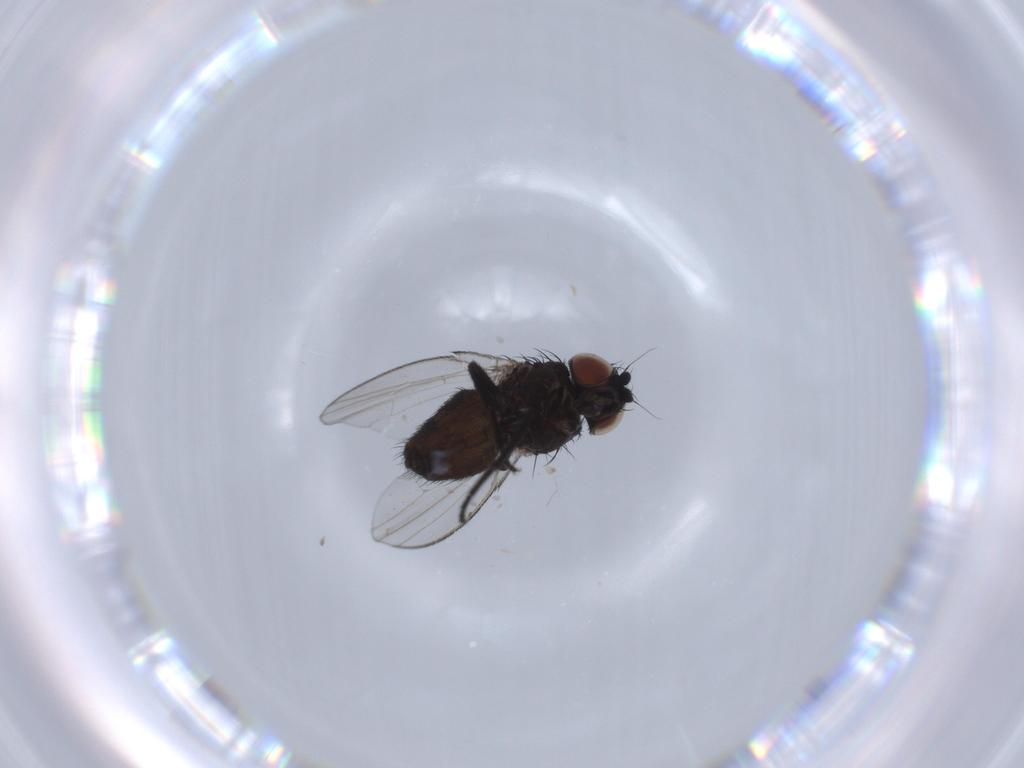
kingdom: Animalia
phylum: Arthropoda
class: Insecta
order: Diptera
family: Milichiidae
